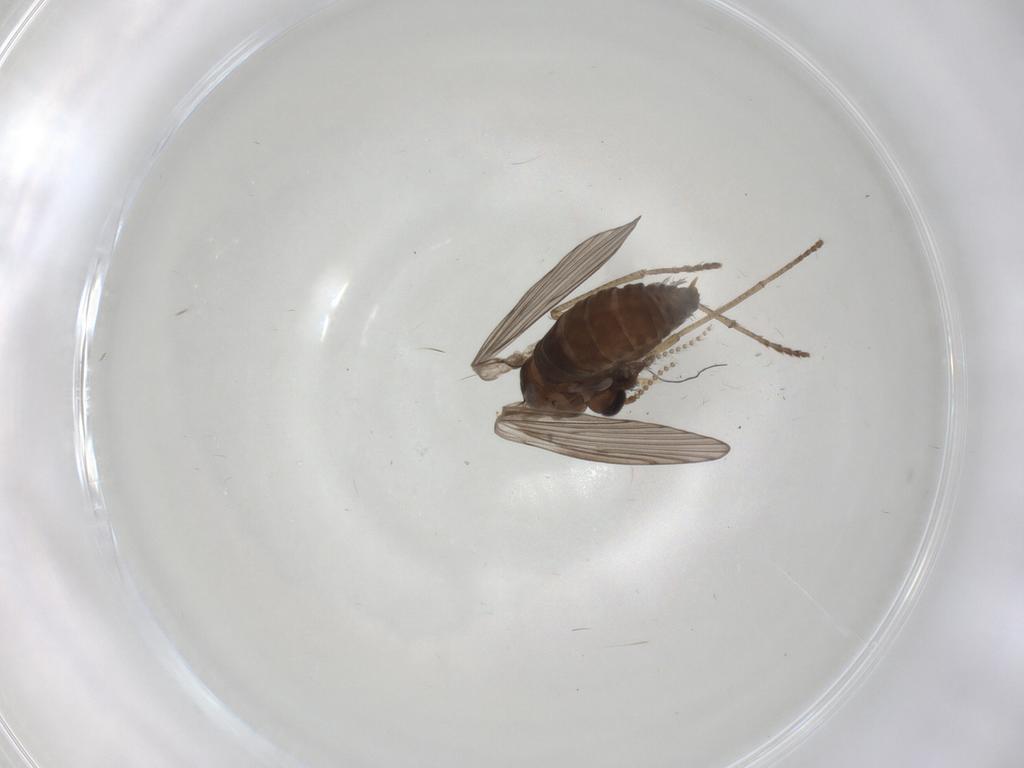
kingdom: Animalia
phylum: Arthropoda
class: Insecta
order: Diptera
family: Psychodidae
